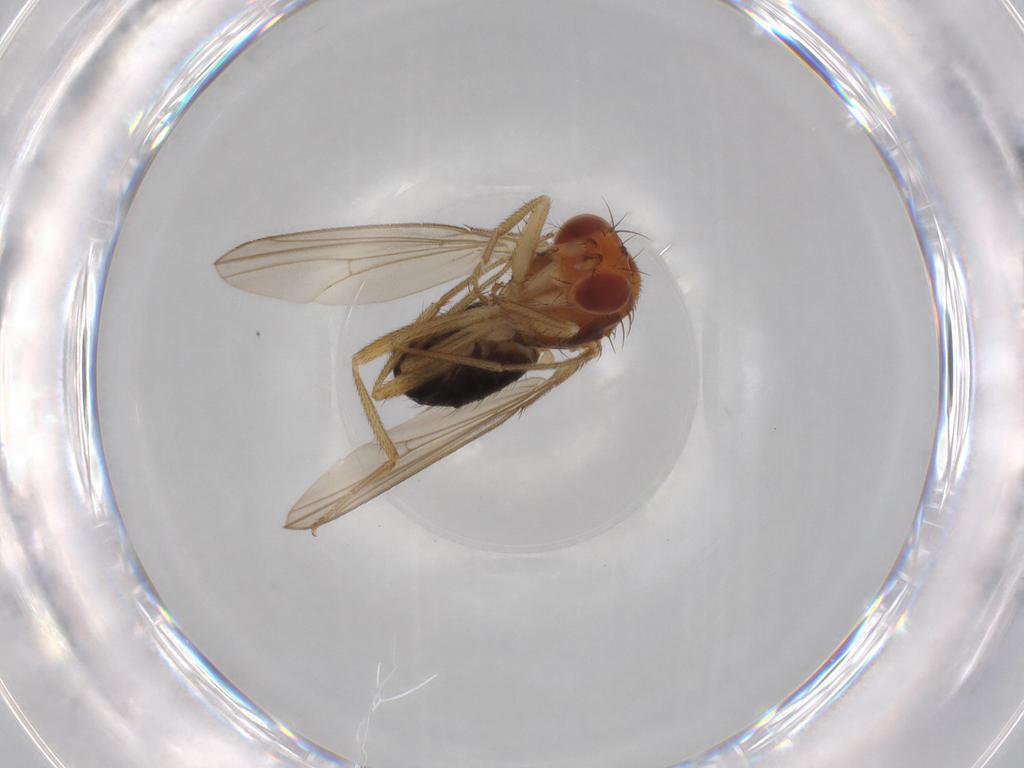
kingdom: Animalia
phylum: Arthropoda
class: Insecta
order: Diptera
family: Drosophilidae
